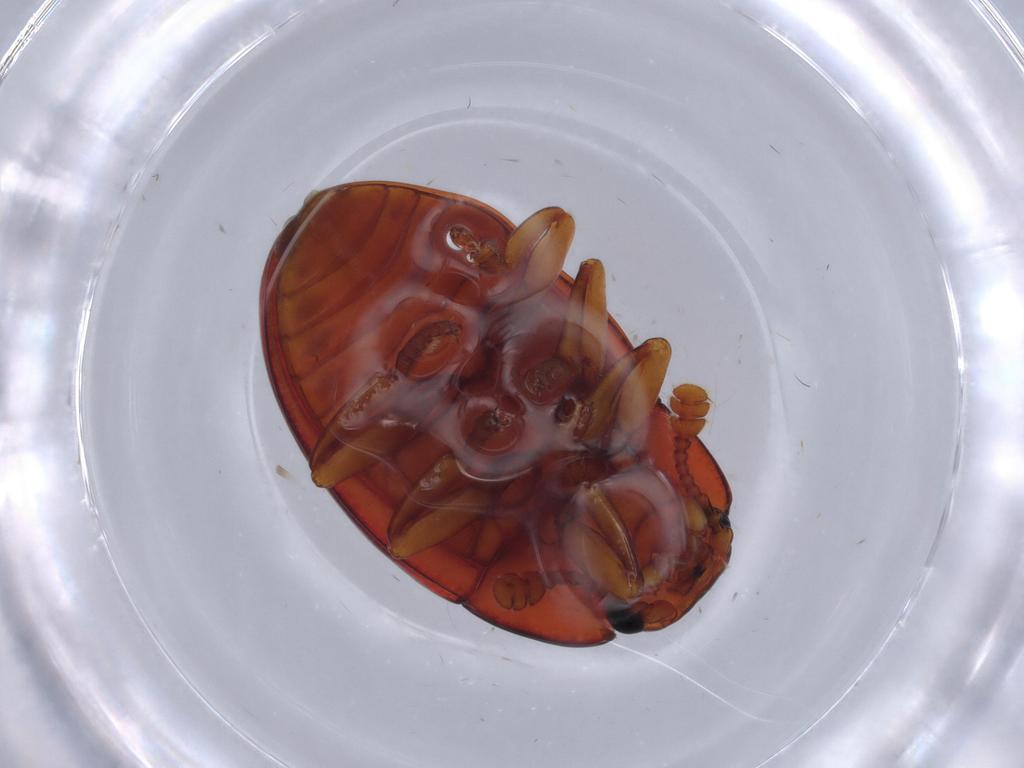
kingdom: Animalia
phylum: Arthropoda
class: Insecta
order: Coleoptera
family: Erotylidae
